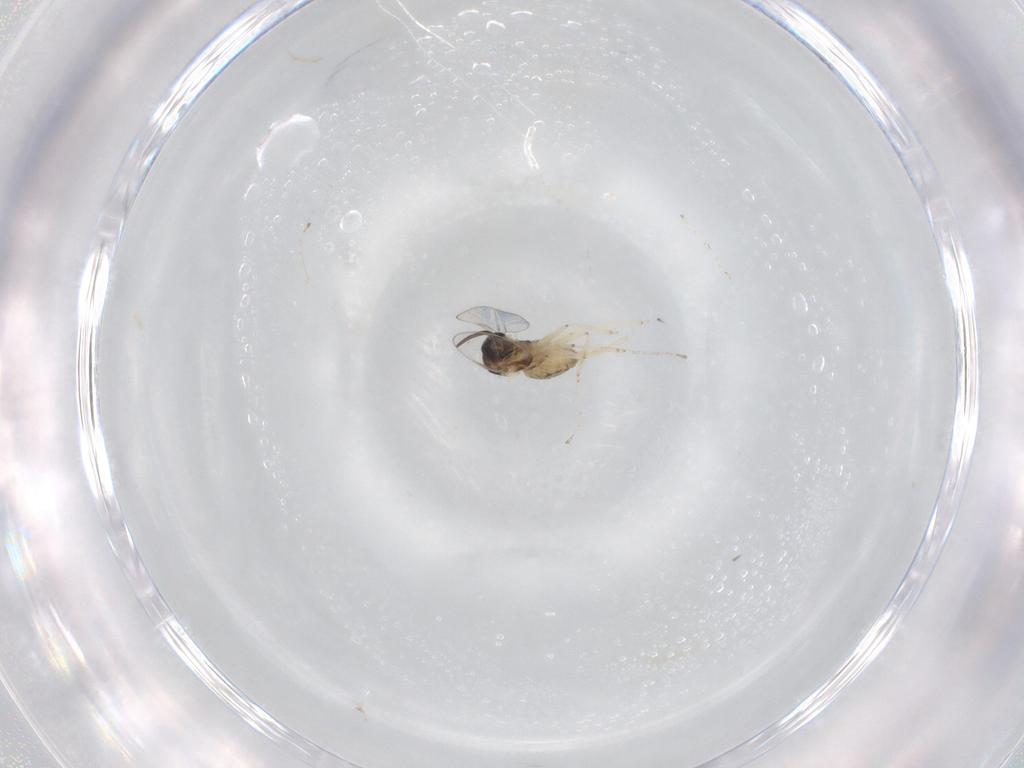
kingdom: Animalia
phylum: Arthropoda
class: Insecta
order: Diptera
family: Cecidomyiidae
